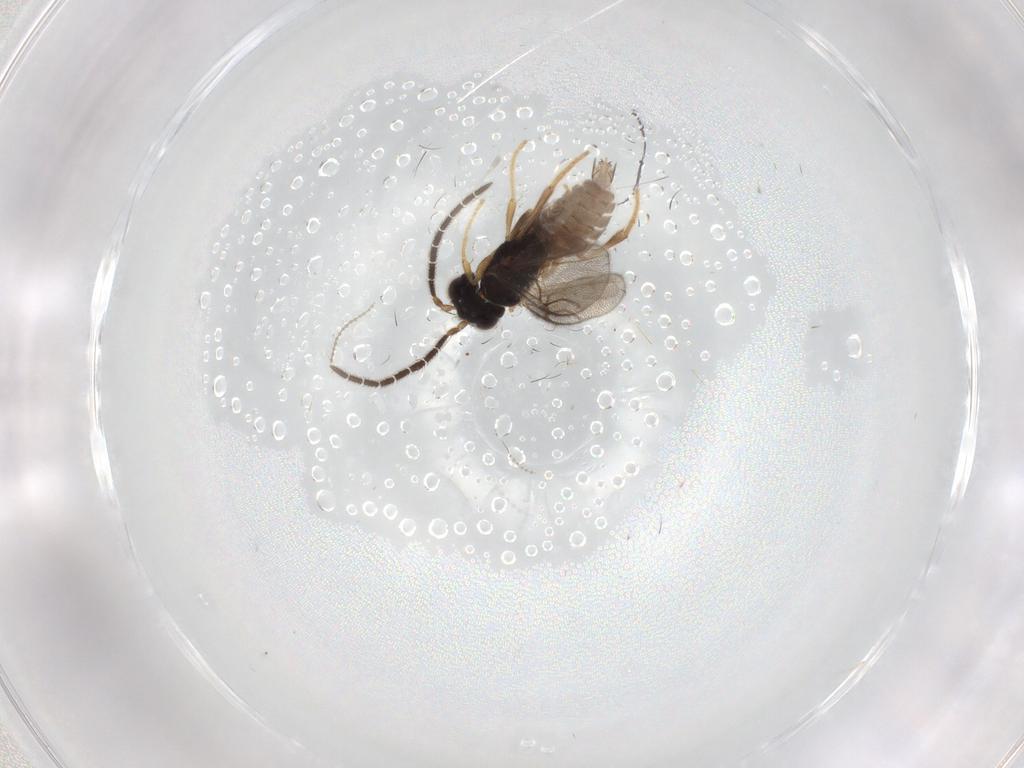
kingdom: Animalia
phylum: Arthropoda
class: Insecta
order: Hymenoptera
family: Dryinidae
